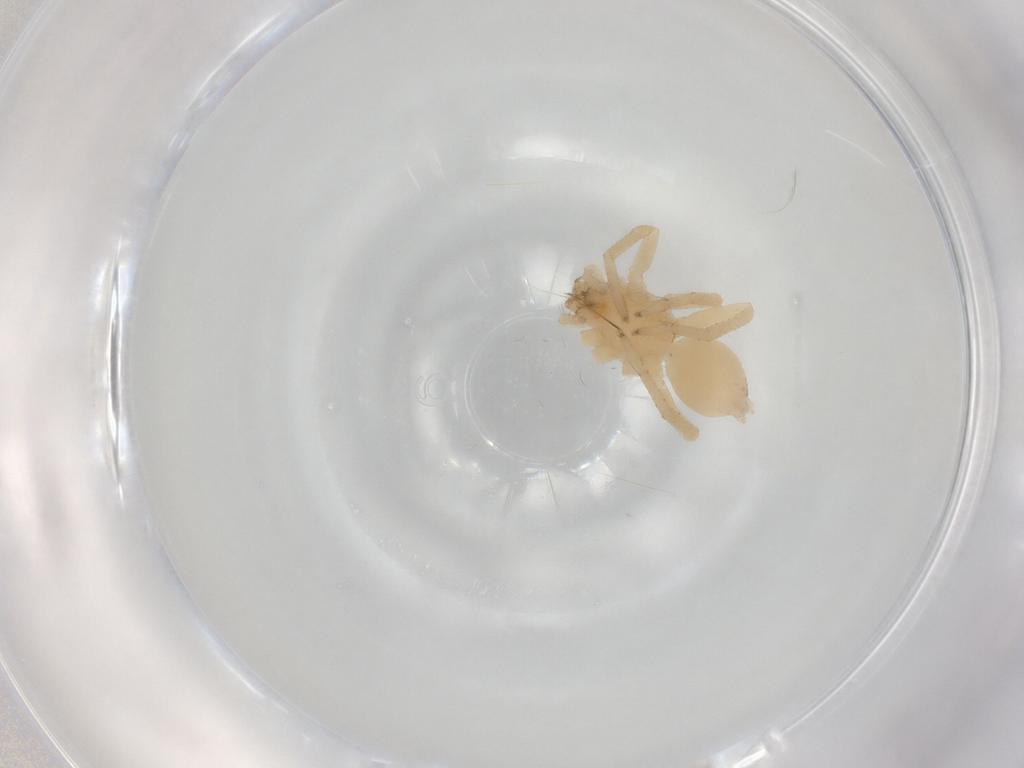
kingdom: Animalia
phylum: Arthropoda
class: Arachnida
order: Araneae
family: Clubionidae
